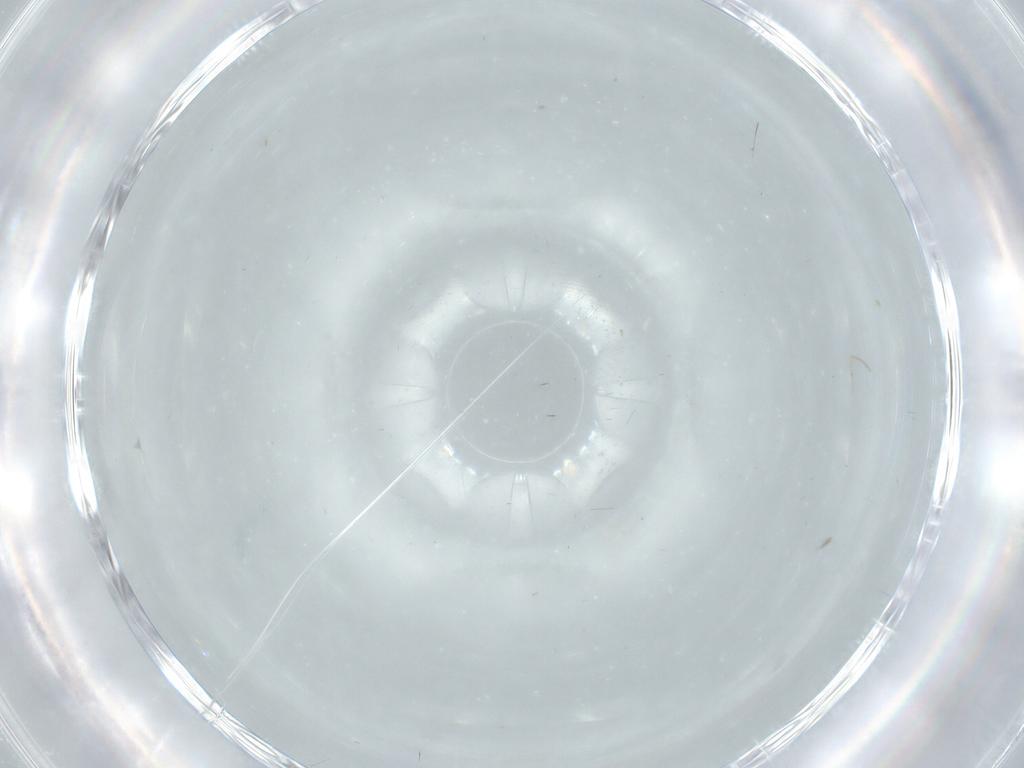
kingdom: Animalia
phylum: Arthropoda
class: Insecta
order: Diptera
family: Cecidomyiidae
